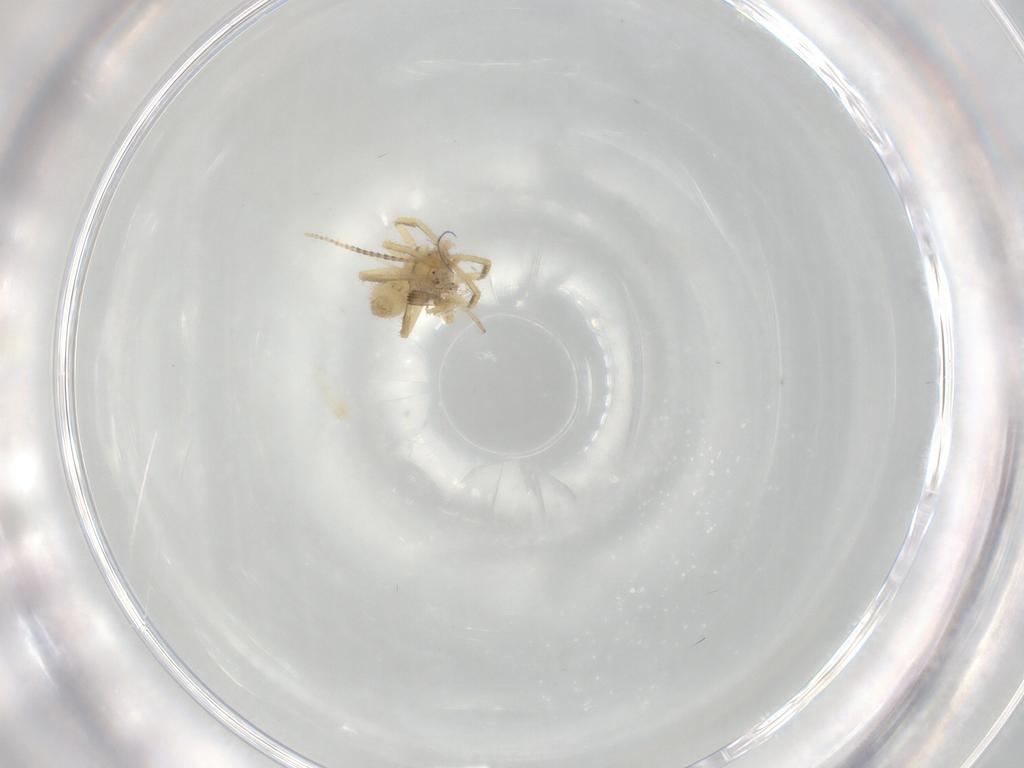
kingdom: Animalia
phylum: Arthropoda
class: Arachnida
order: Araneae
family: Theridiidae
